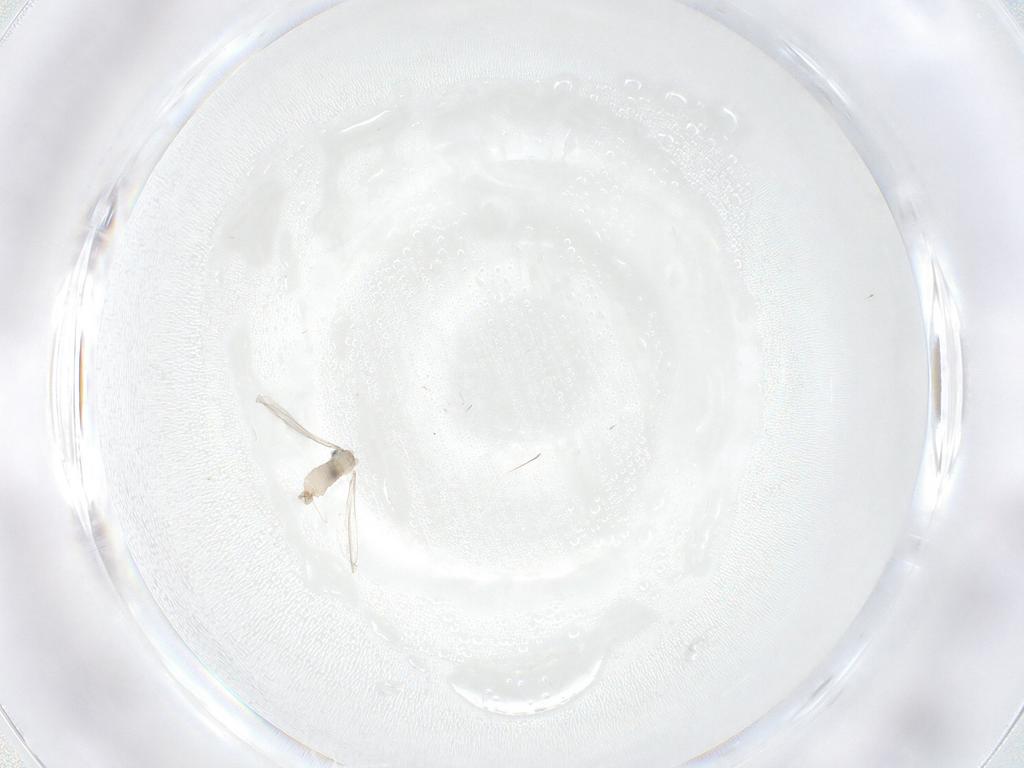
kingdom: Animalia
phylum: Arthropoda
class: Insecta
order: Diptera
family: Cecidomyiidae
